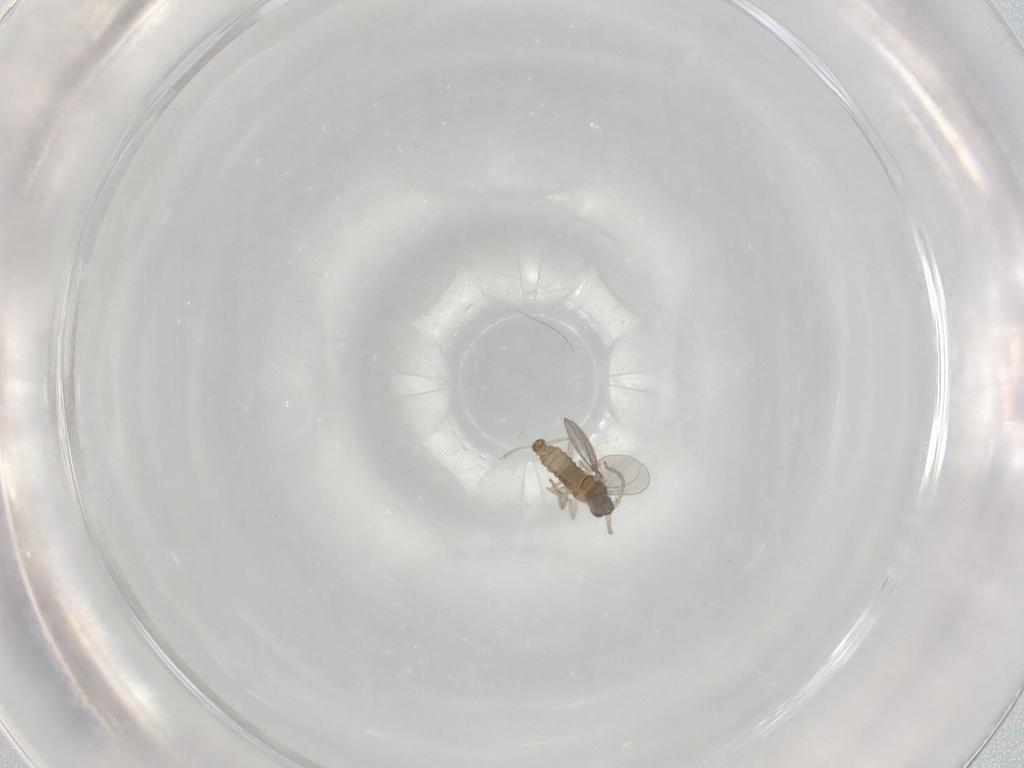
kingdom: Animalia
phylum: Arthropoda
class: Insecta
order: Diptera
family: Cecidomyiidae
